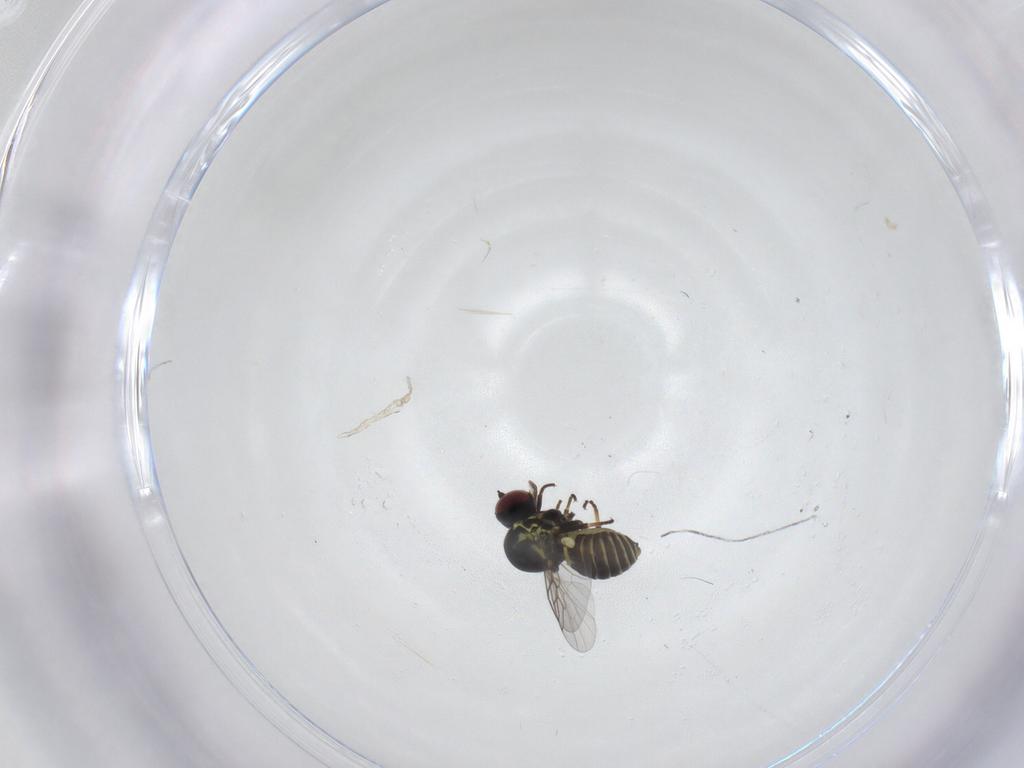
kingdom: Animalia
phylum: Arthropoda
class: Insecta
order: Diptera
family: Mythicomyiidae
